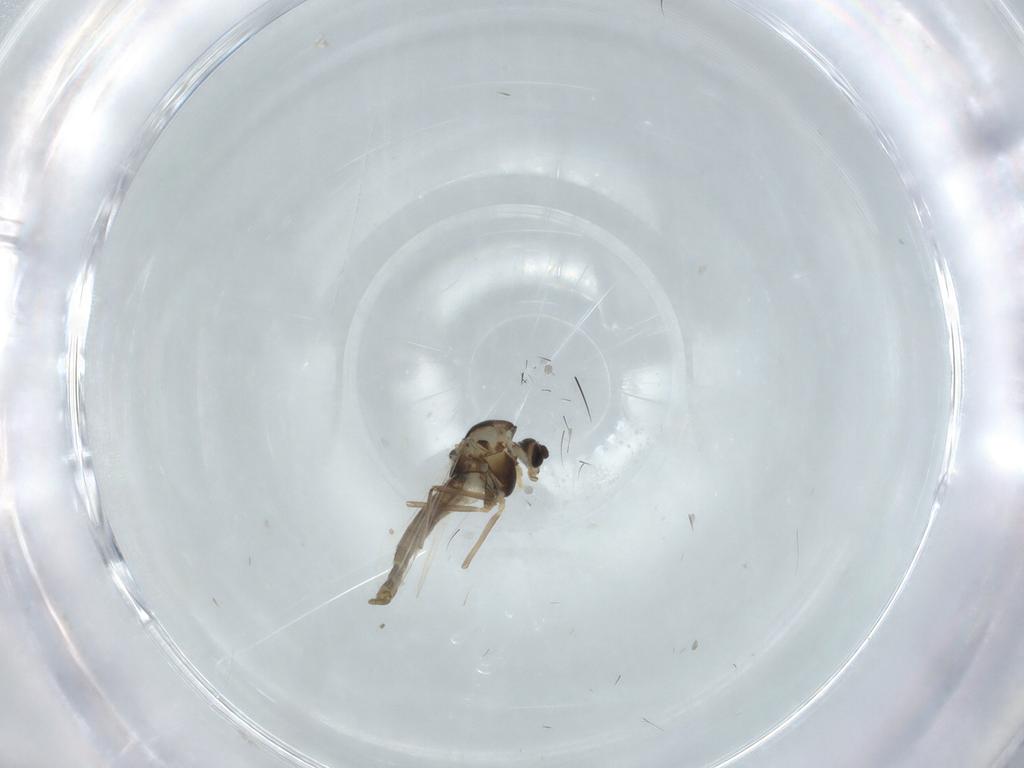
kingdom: Animalia
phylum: Arthropoda
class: Insecta
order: Diptera
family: Chironomidae
